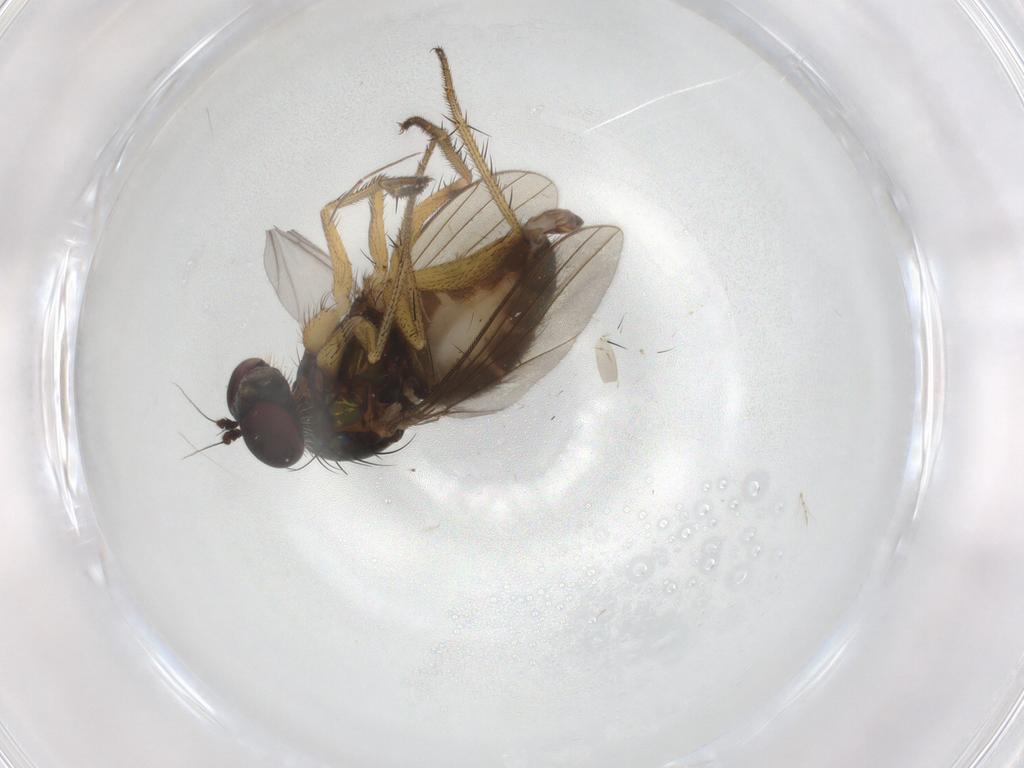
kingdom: Animalia
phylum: Arthropoda
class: Insecta
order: Diptera
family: Dolichopodidae
